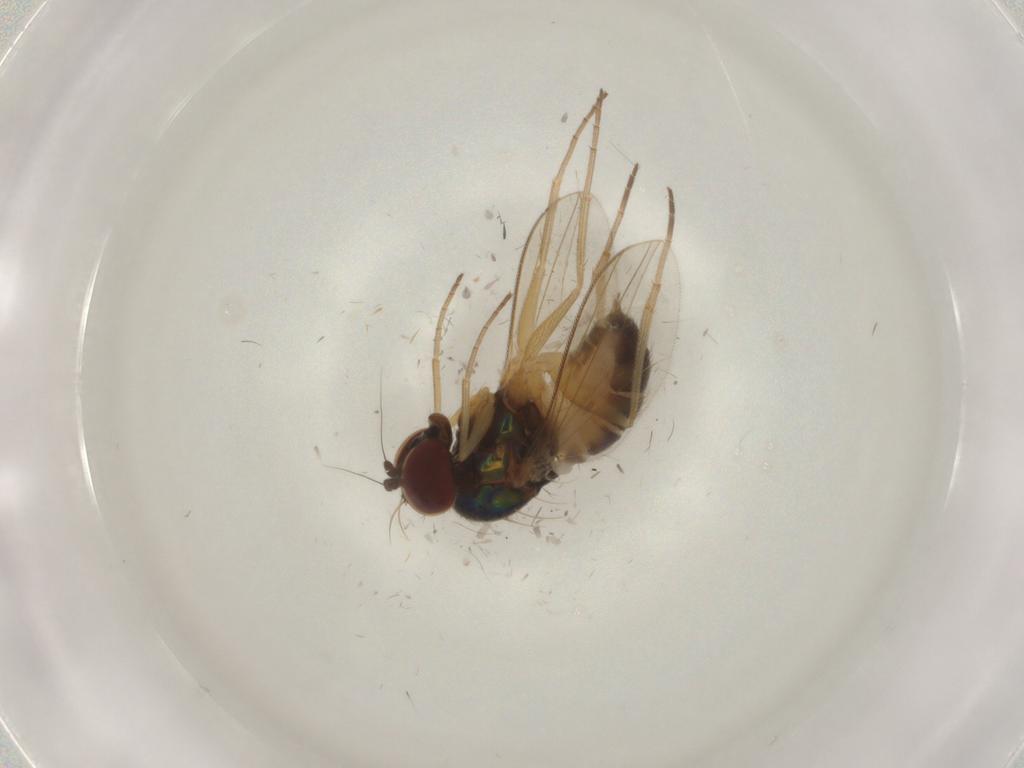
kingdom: Animalia
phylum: Arthropoda
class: Insecta
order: Diptera
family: Dolichopodidae
